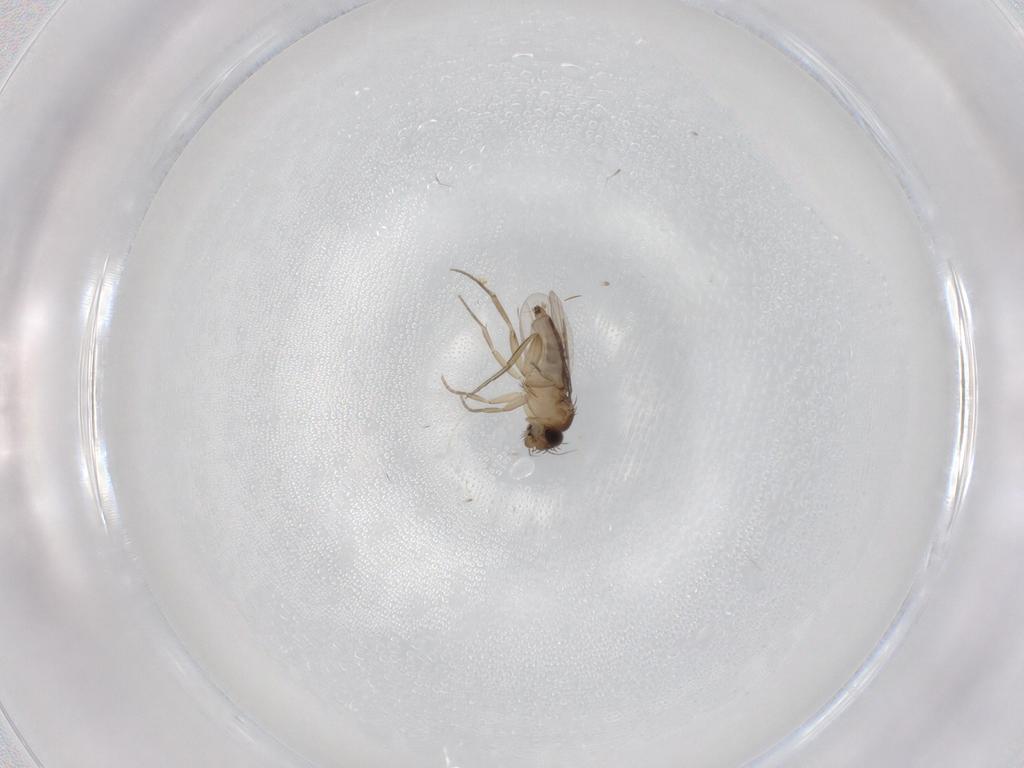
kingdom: Animalia
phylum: Arthropoda
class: Insecta
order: Diptera
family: Phoridae
